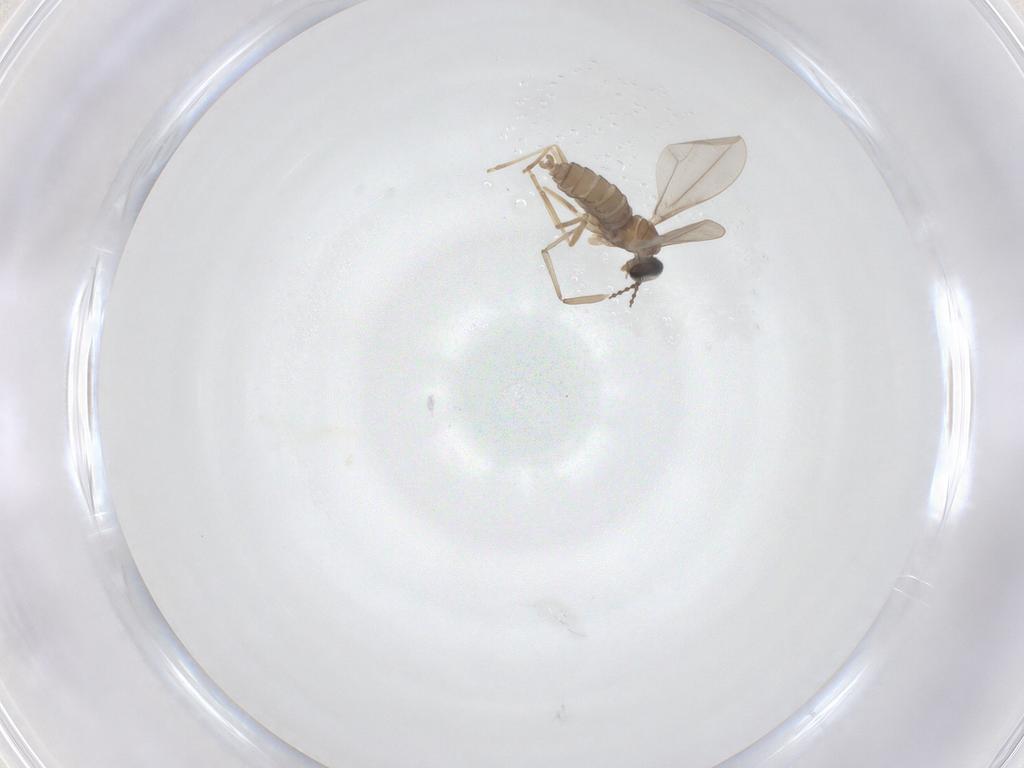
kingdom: Animalia
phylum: Arthropoda
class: Insecta
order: Diptera
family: Cecidomyiidae
